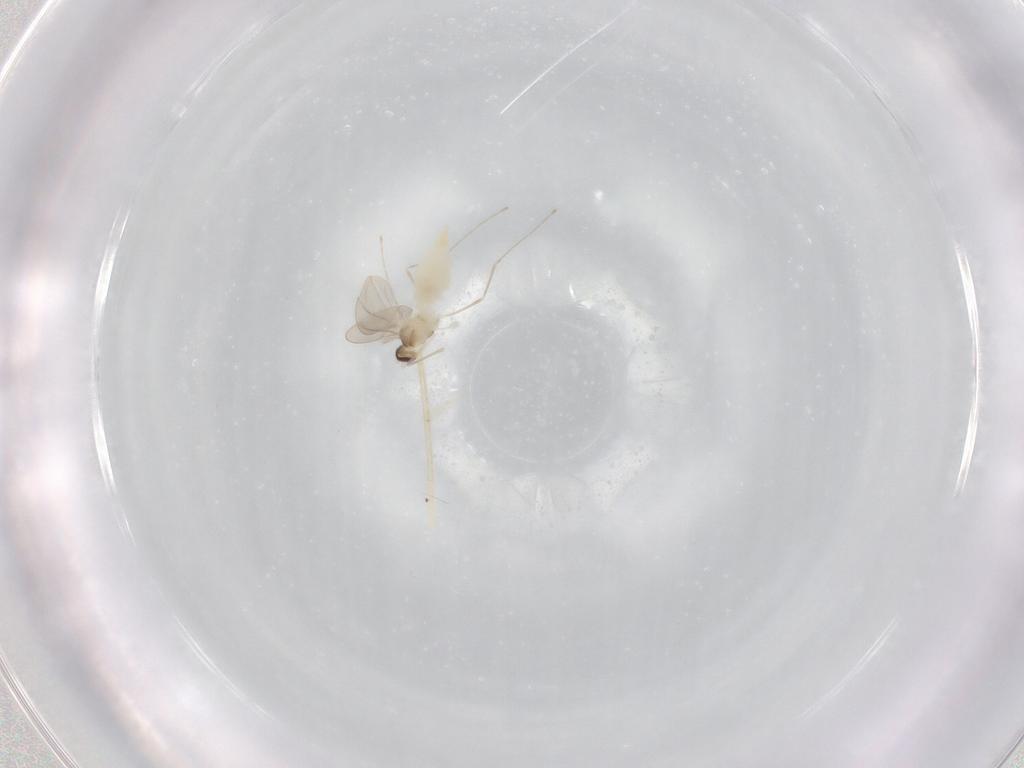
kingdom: Animalia
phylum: Arthropoda
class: Insecta
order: Diptera
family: Cecidomyiidae
